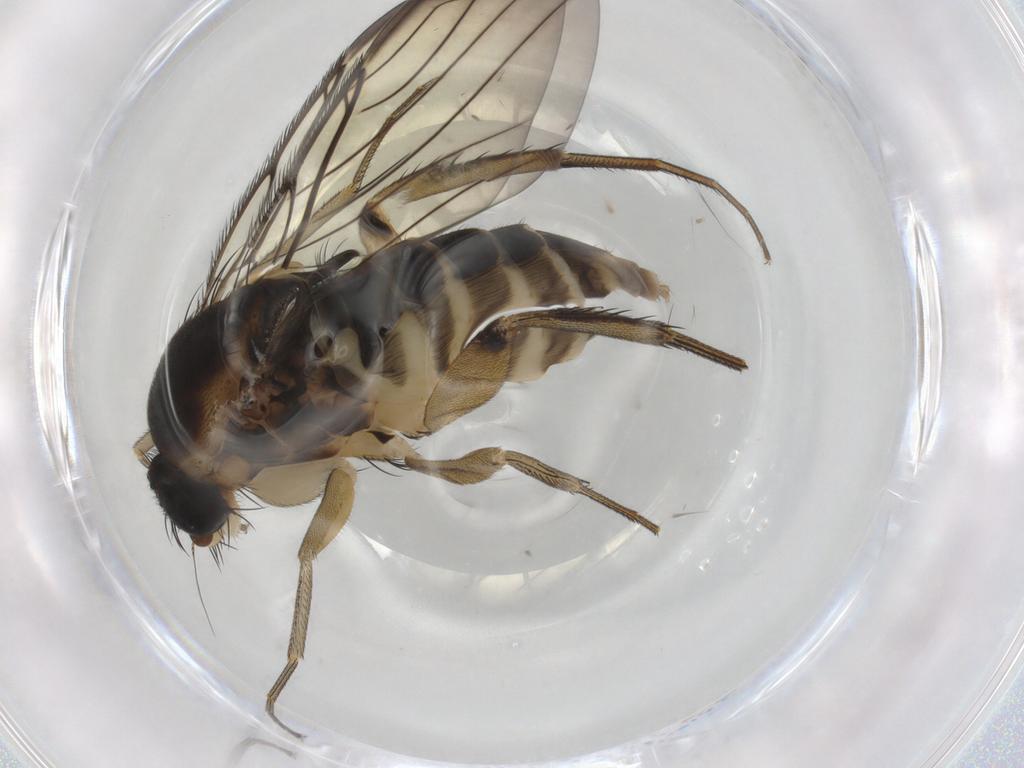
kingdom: Animalia
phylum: Arthropoda
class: Insecta
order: Diptera
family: Phoridae
